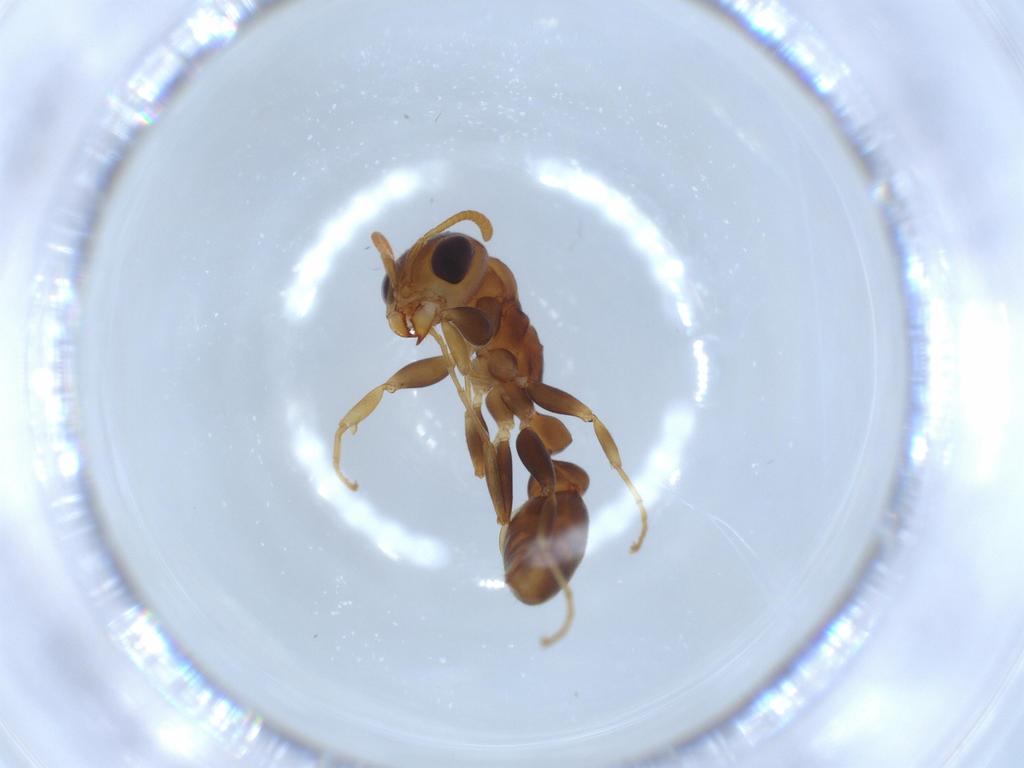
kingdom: Animalia
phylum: Arthropoda
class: Insecta
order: Hymenoptera
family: Formicidae
